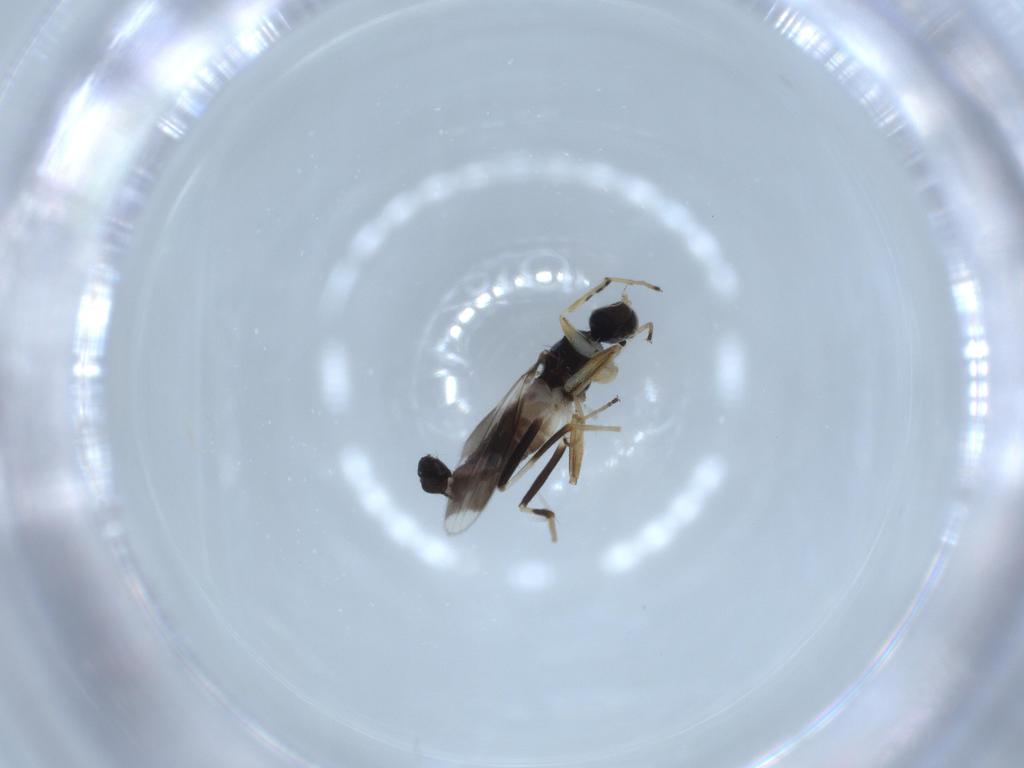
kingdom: Animalia
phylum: Arthropoda
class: Insecta
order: Diptera
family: Hybotidae
